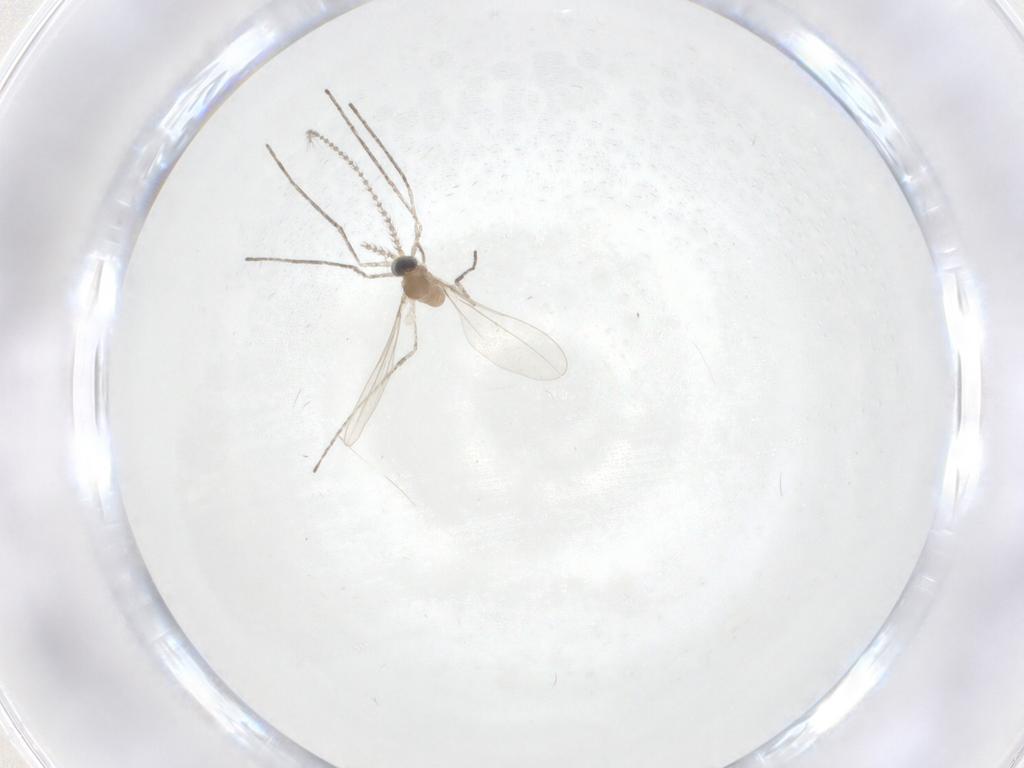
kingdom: Animalia
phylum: Arthropoda
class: Insecta
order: Diptera
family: Cecidomyiidae
